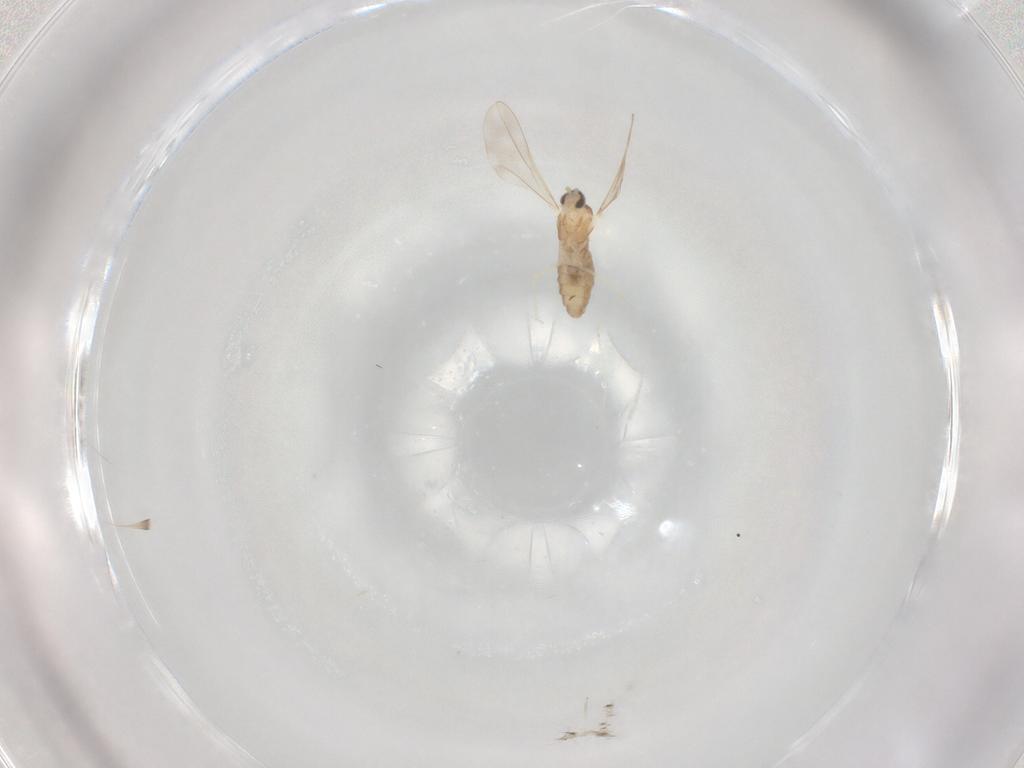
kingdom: Animalia
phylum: Arthropoda
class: Insecta
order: Diptera
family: Cecidomyiidae
